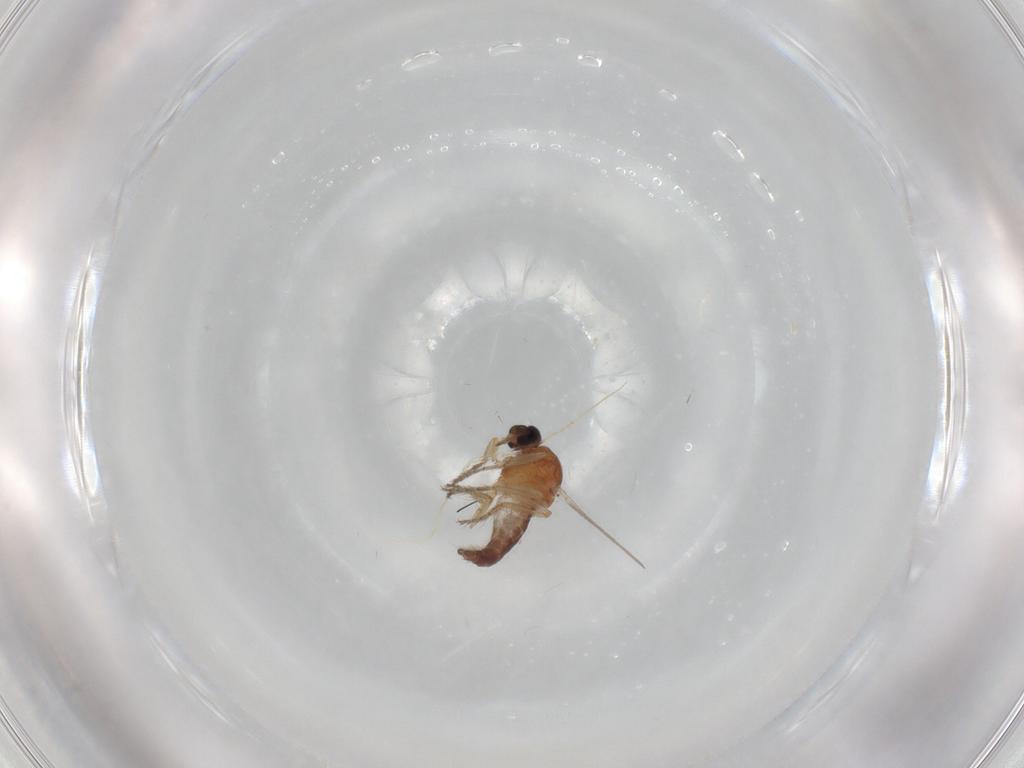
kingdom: Animalia
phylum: Arthropoda
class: Insecta
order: Diptera
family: Ceratopogonidae
